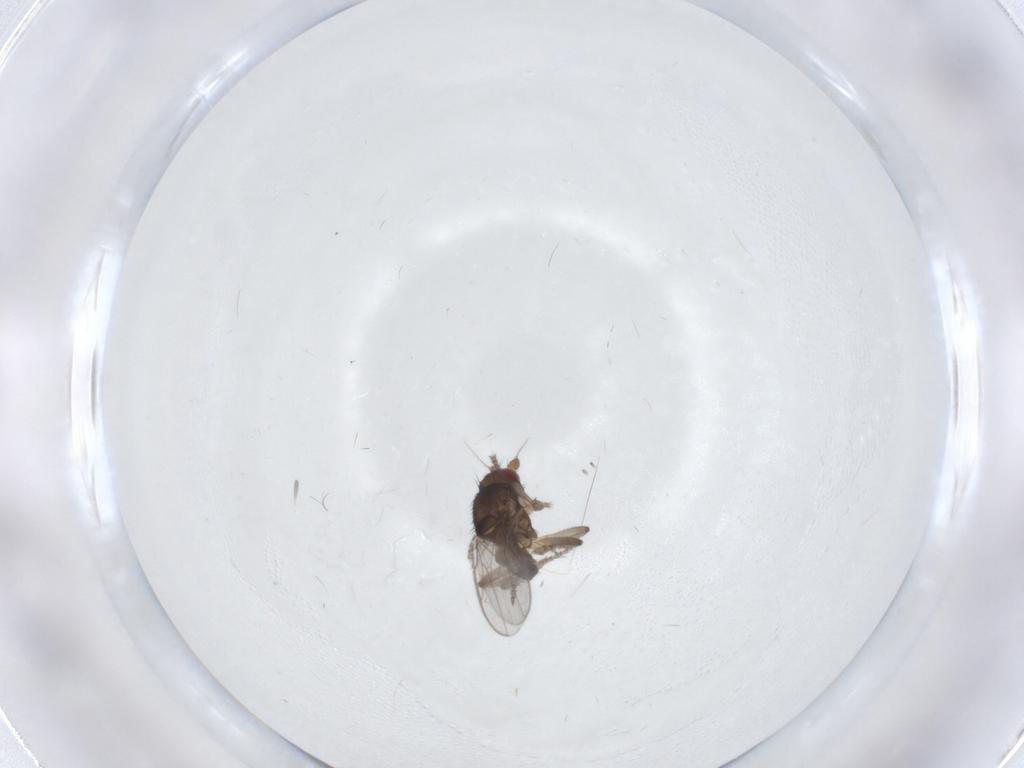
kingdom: Animalia
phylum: Arthropoda
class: Insecta
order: Diptera
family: Sphaeroceridae
